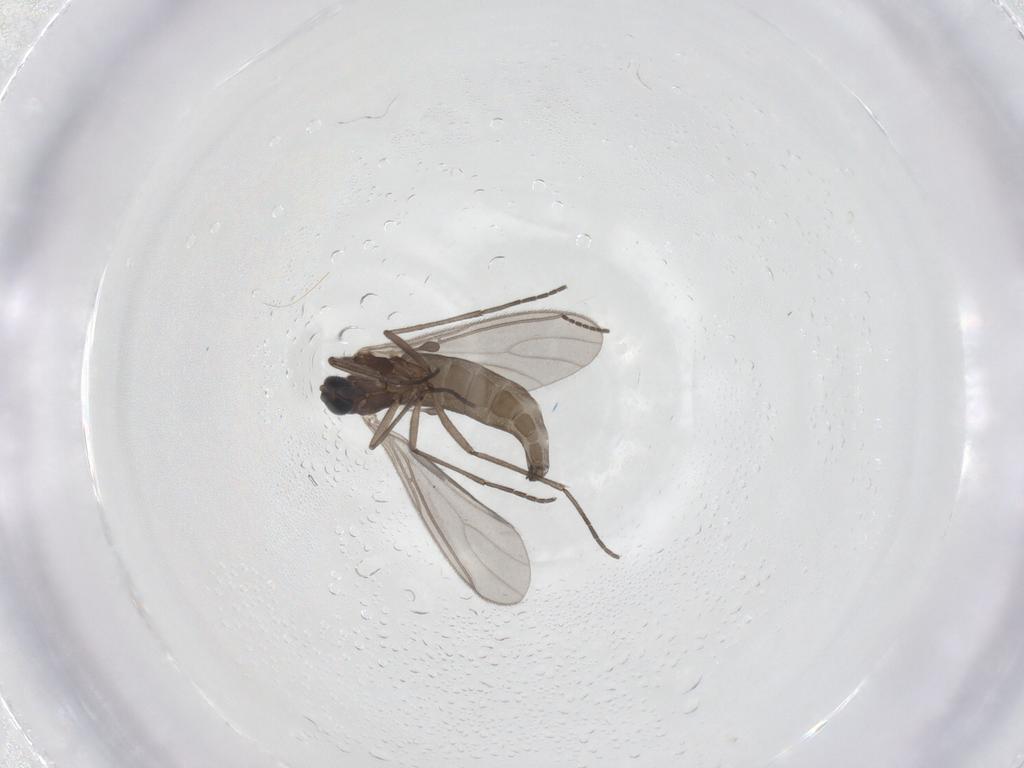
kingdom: Animalia
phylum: Arthropoda
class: Insecta
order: Diptera
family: Sciaridae
